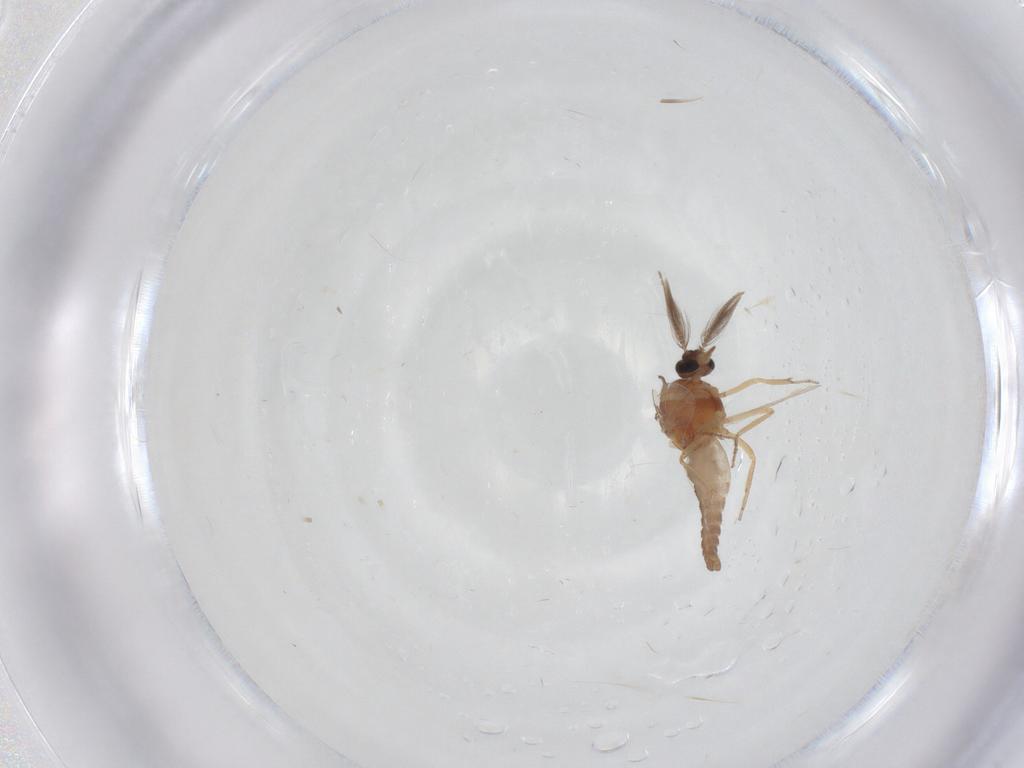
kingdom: Animalia
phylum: Arthropoda
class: Insecta
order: Diptera
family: Ceratopogonidae
